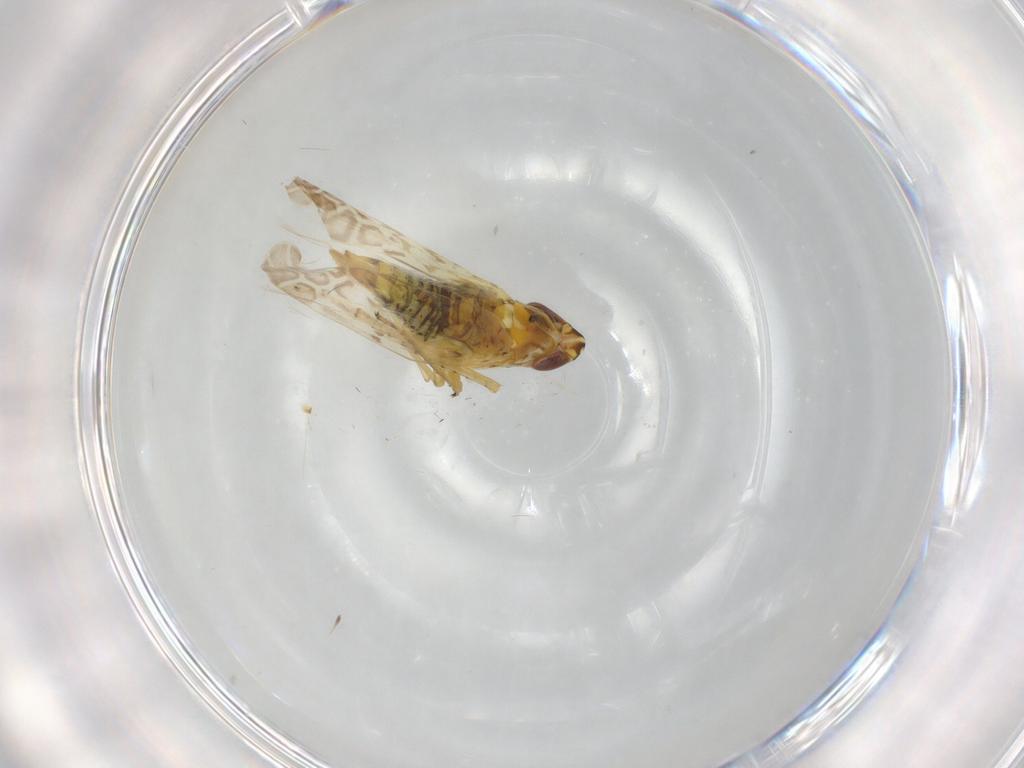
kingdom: Animalia
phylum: Arthropoda
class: Insecta
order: Hemiptera
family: Cicadellidae
